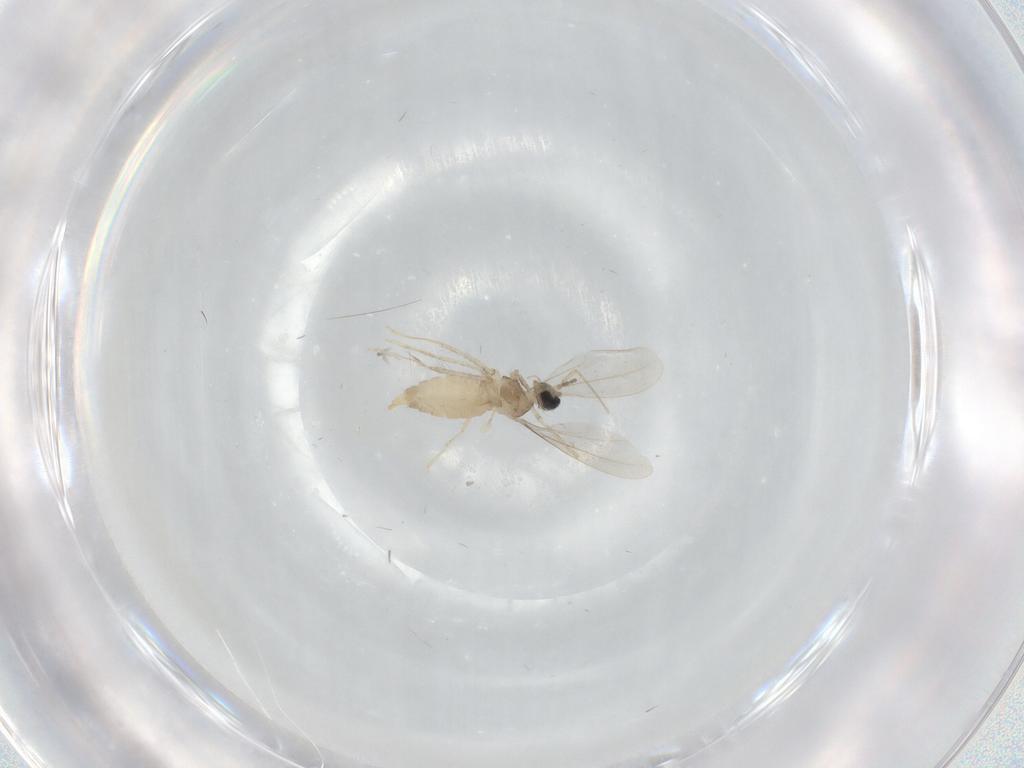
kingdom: Animalia
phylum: Arthropoda
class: Insecta
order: Diptera
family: Cecidomyiidae
